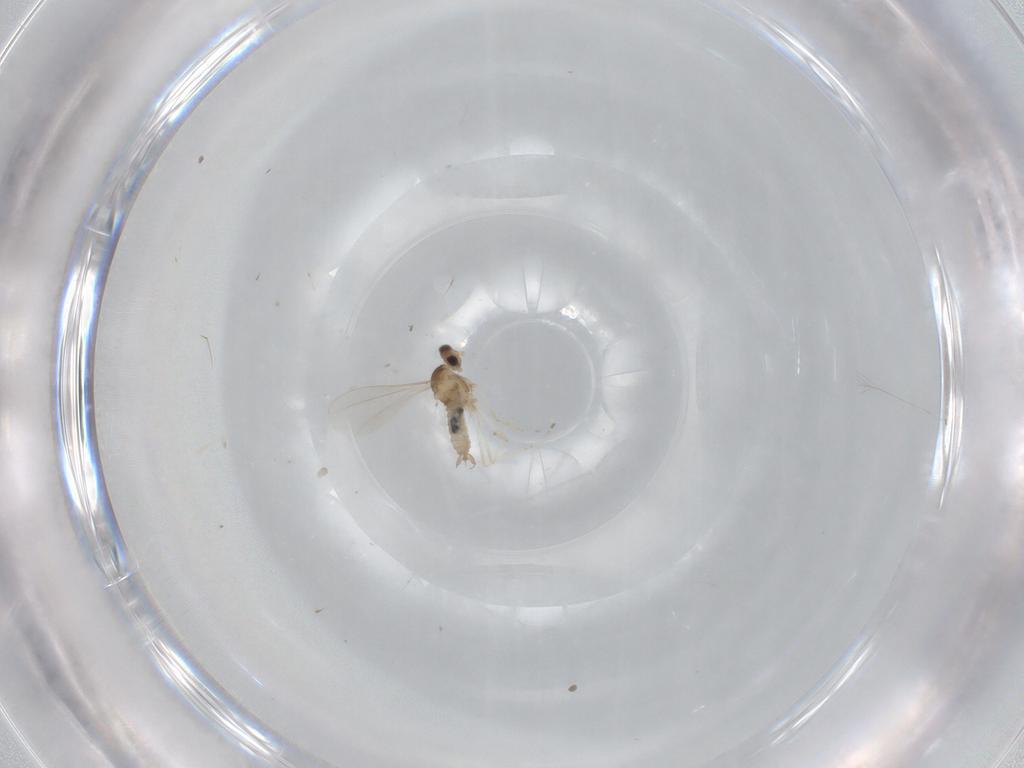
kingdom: Animalia
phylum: Arthropoda
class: Insecta
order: Diptera
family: Cecidomyiidae
